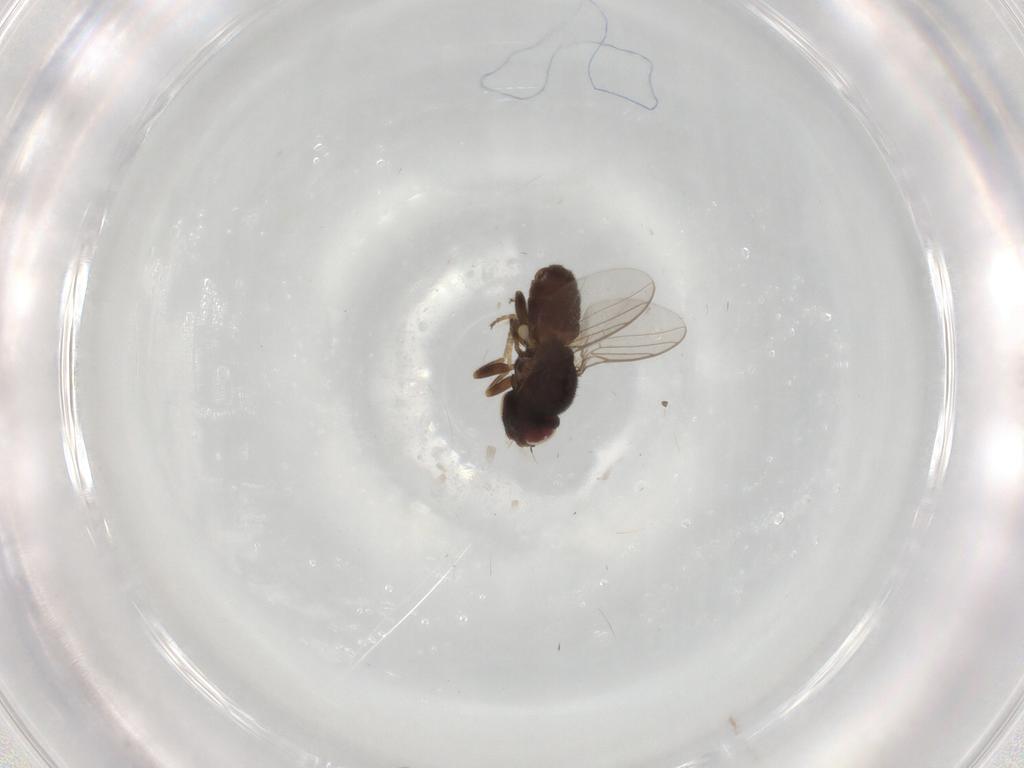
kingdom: Animalia
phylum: Arthropoda
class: Insecta
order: Diptera
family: Chloropidae
